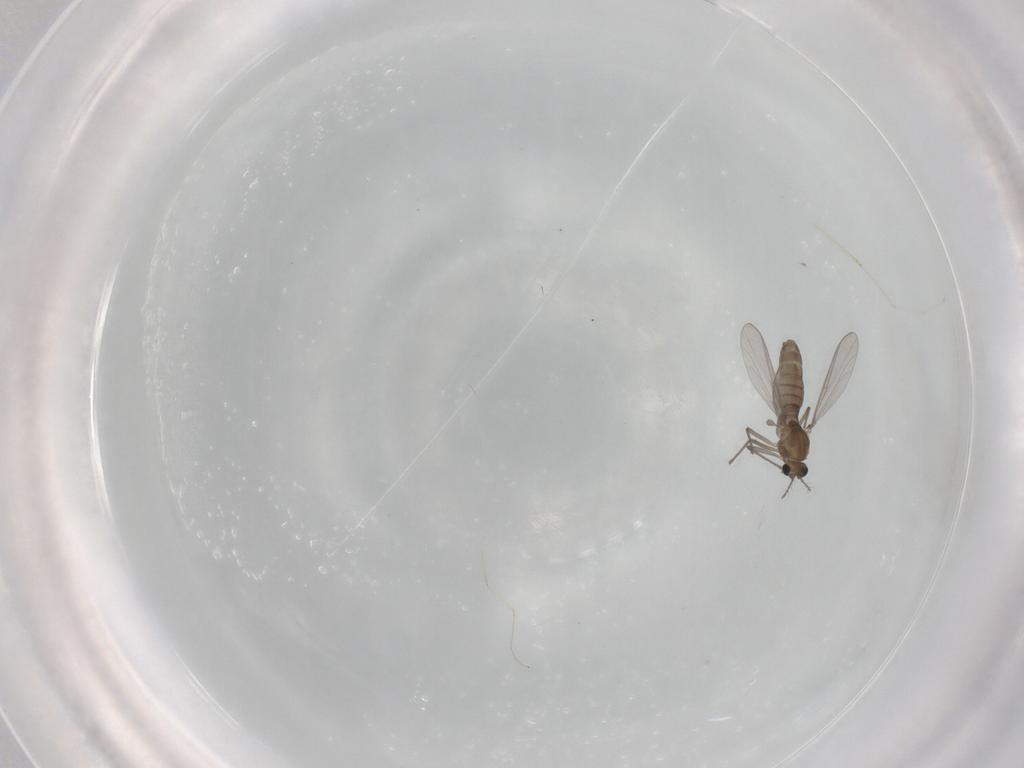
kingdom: Animalia
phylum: Arthropoda
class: Insecta
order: Diptera
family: Chironomidae
